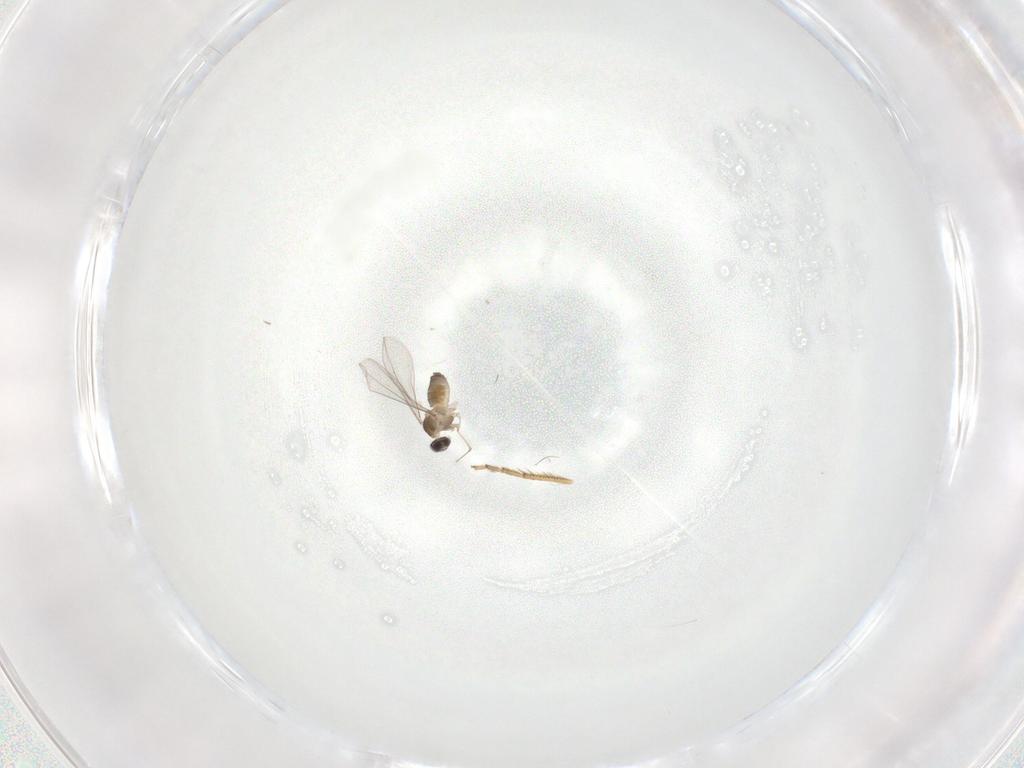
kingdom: Animalia
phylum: Arthropoda
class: Insecta
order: Diptera
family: Cecidomyiidae
